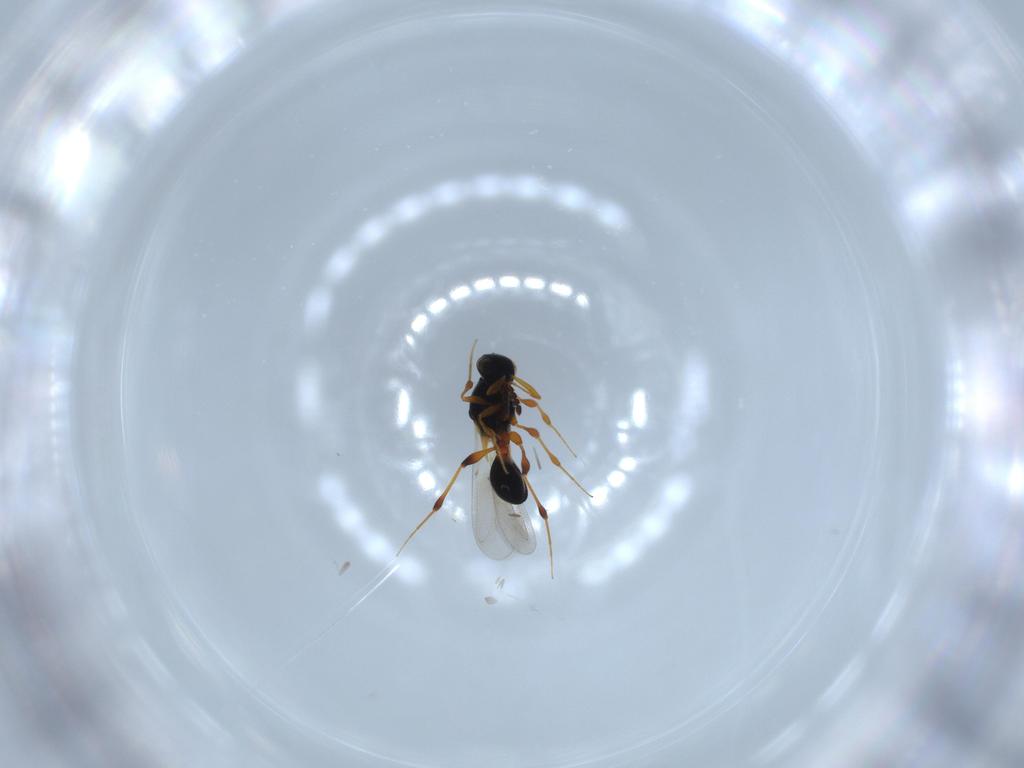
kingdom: Animalia
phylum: Arthropoda
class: Insecta
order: Hymenoptera
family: Platygastridae
